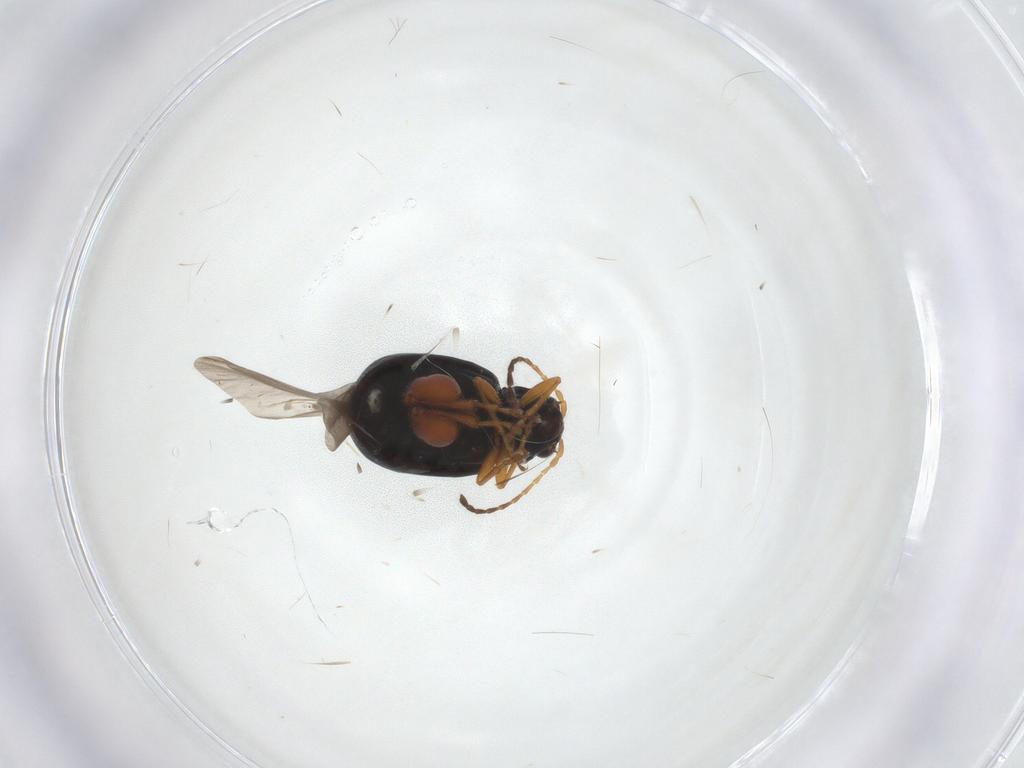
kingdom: Animalia
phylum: Arthropoda
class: Insecta
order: Coleoptera
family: Chrysomelidae
